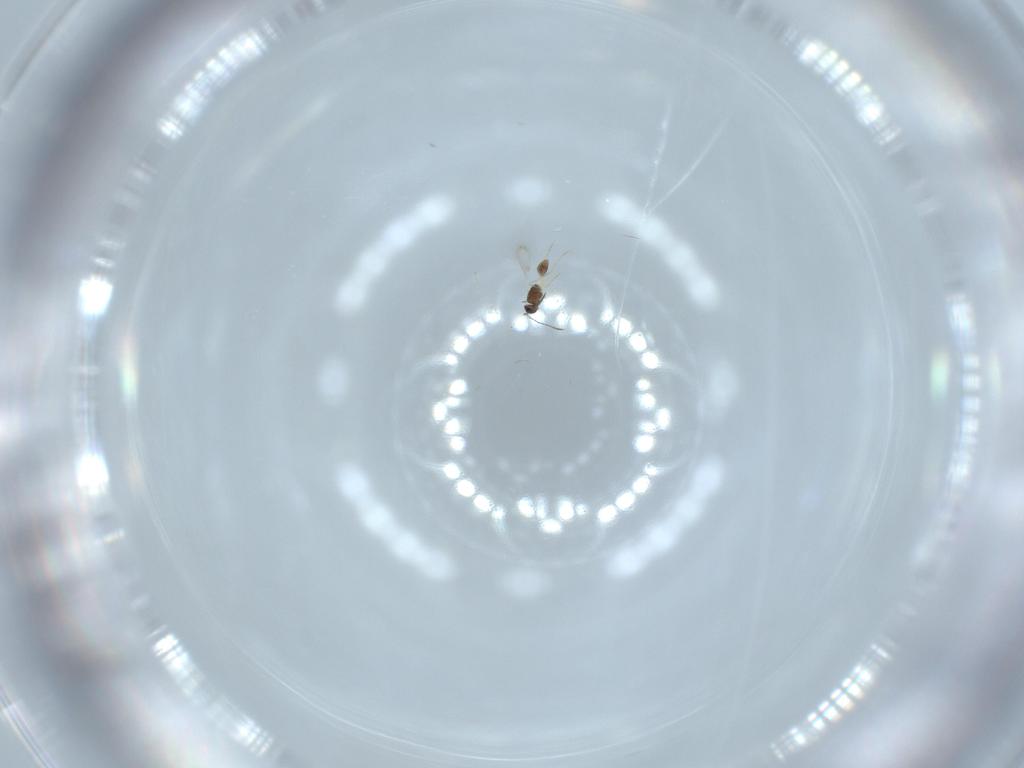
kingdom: Animalia
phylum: Arthropoda
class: Insecta
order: Hymenoptera
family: Mymarommatidae
